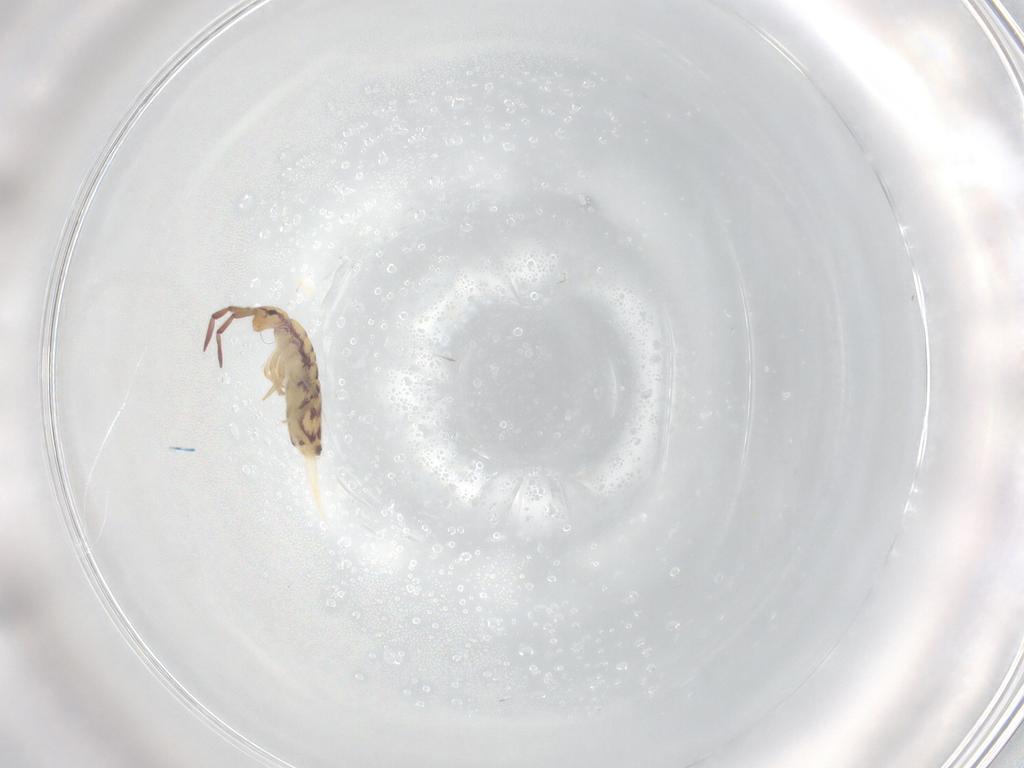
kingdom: Animalia
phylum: Arthropoda
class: Collembola
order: Entomobryomorpha
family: Entomobryidae
